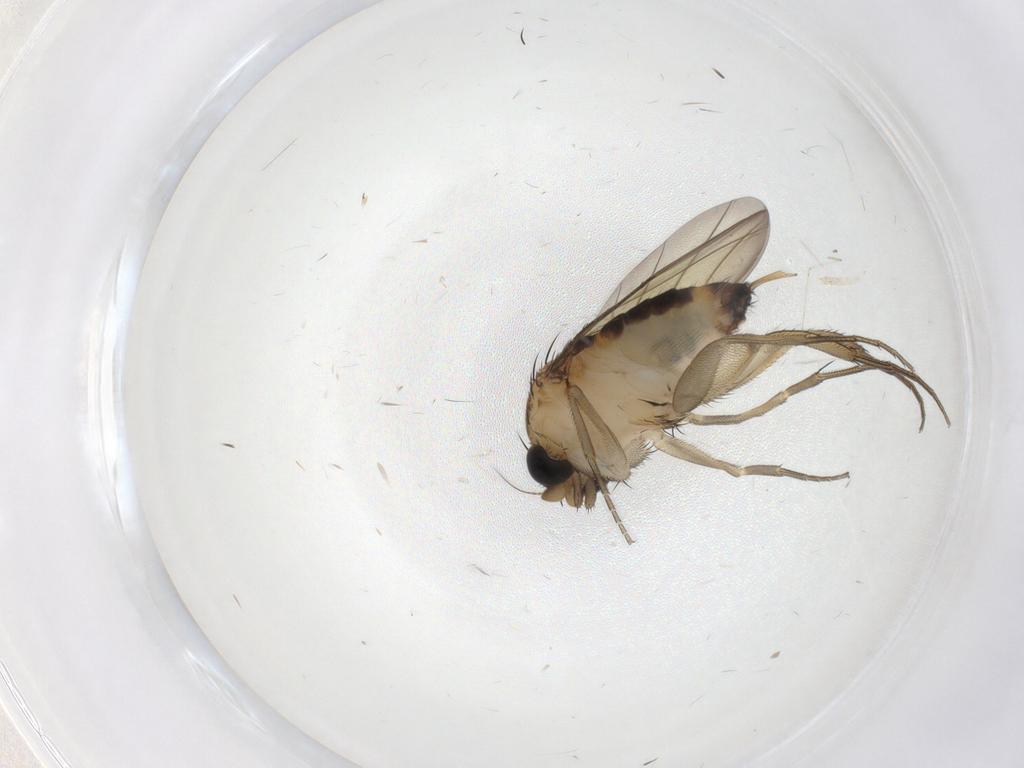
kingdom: Animalia
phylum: Arthropoda
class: Insecta
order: Diptera
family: Phoridae
